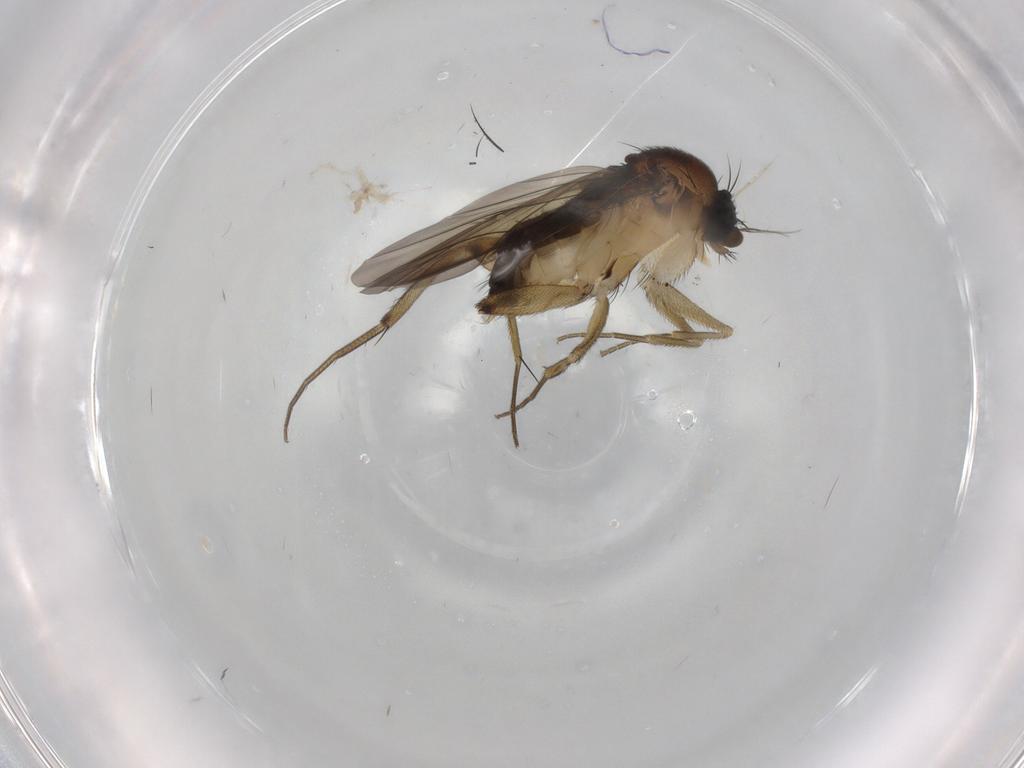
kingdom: Animalia
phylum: Arthropoda
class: Insecta
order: Diptera
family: Phoridae
